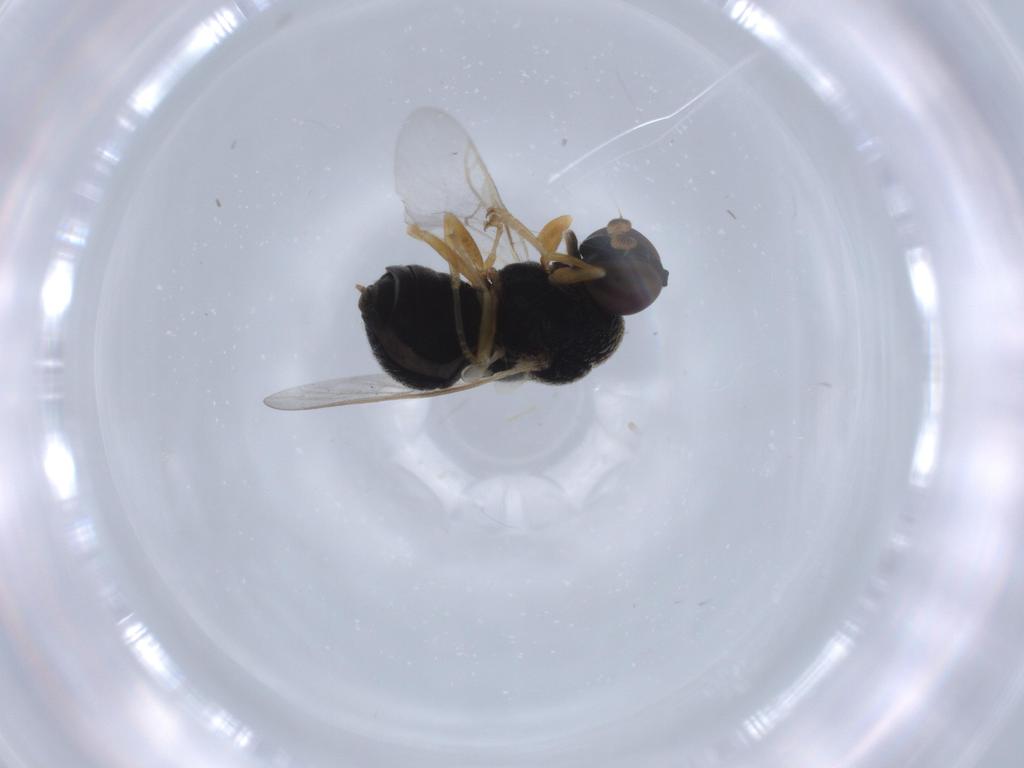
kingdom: Animalia
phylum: Arthropoda
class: Insecta
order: Diptera
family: Stratiomyidae
